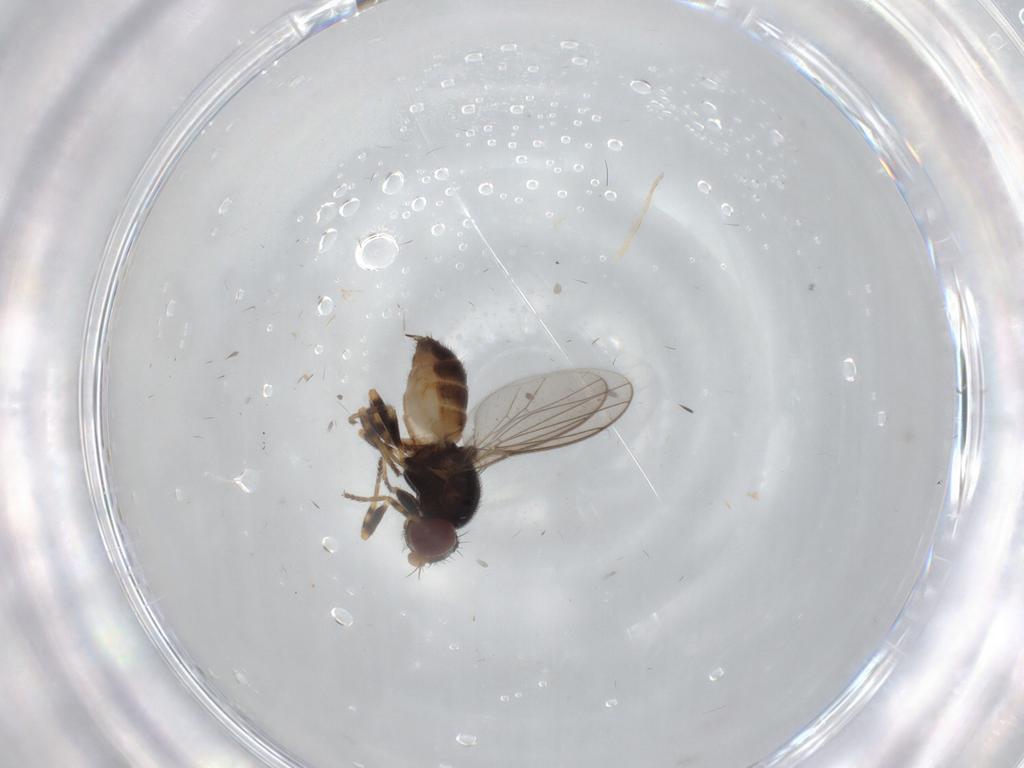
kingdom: Animalia
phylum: Arthropoda
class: Insecta
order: Diptera
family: Chloropidae
